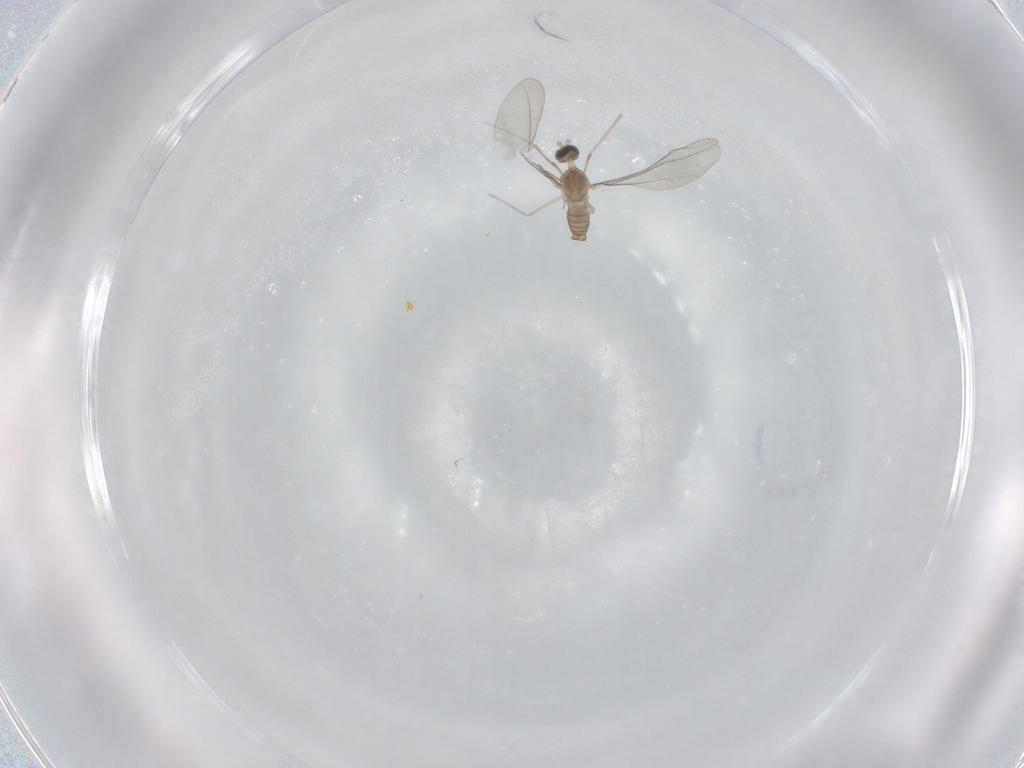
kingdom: Animalia
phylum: Arthropoda
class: Insecta
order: Diptera
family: Cecidomyiidae
